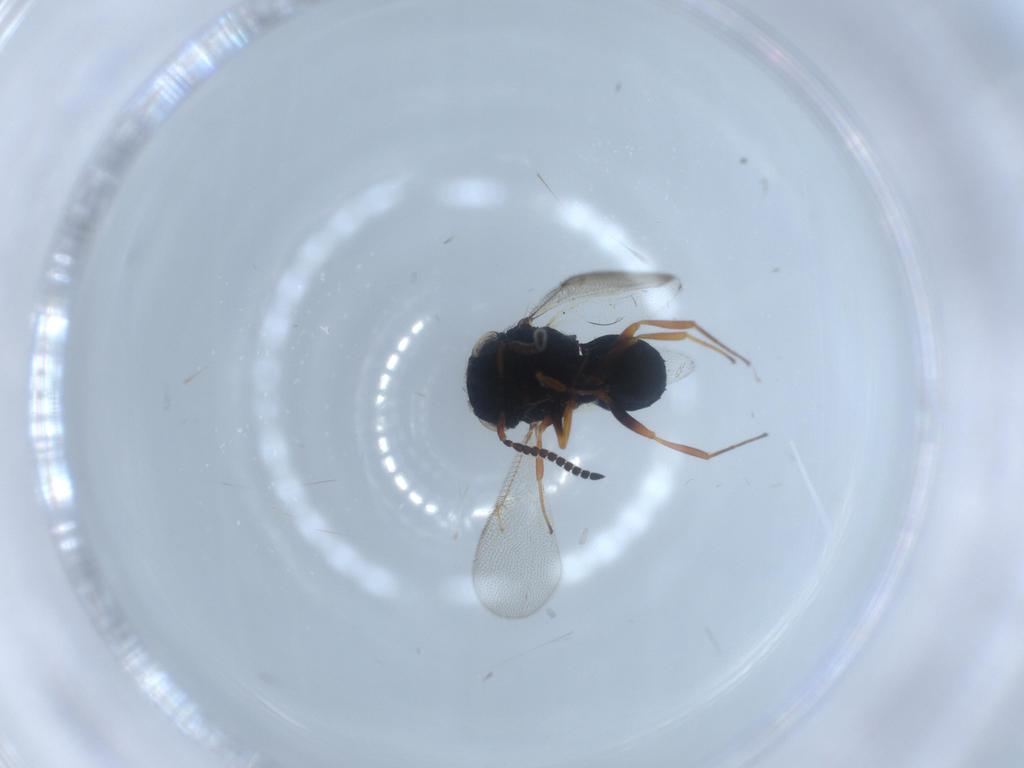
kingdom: Animalia
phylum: Arthropoda
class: Insecta
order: Hymenoptera
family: Scelionidae
